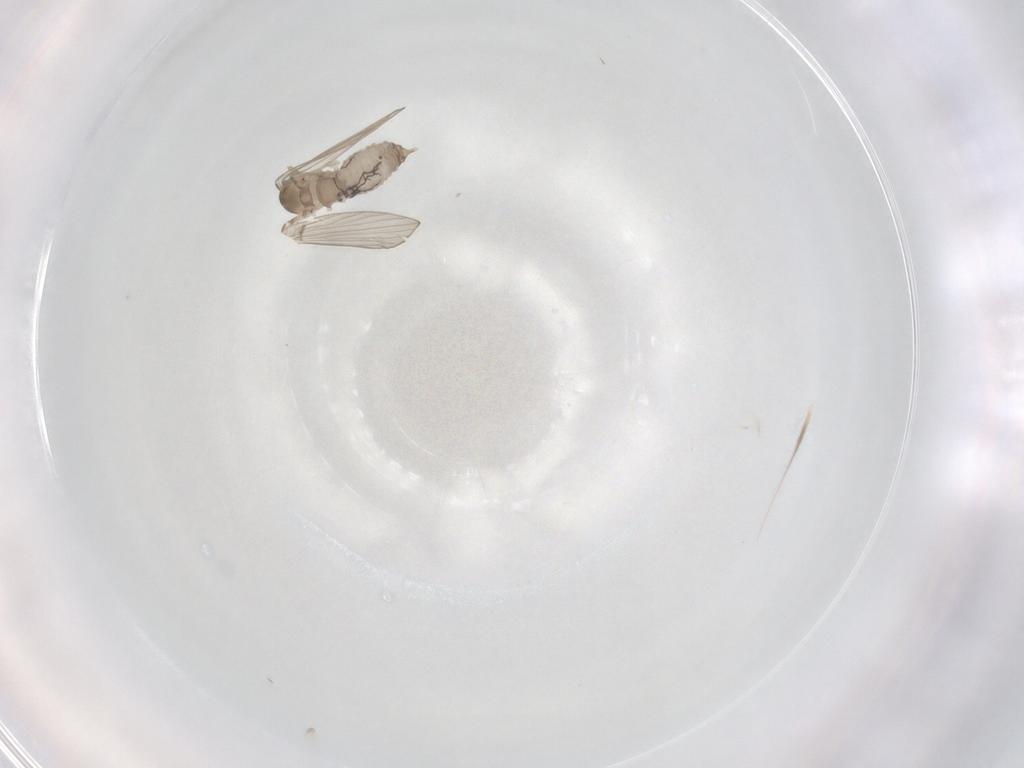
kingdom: Animalia
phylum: Arthropoda
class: Insecta
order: Diptera
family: Psychodidae
